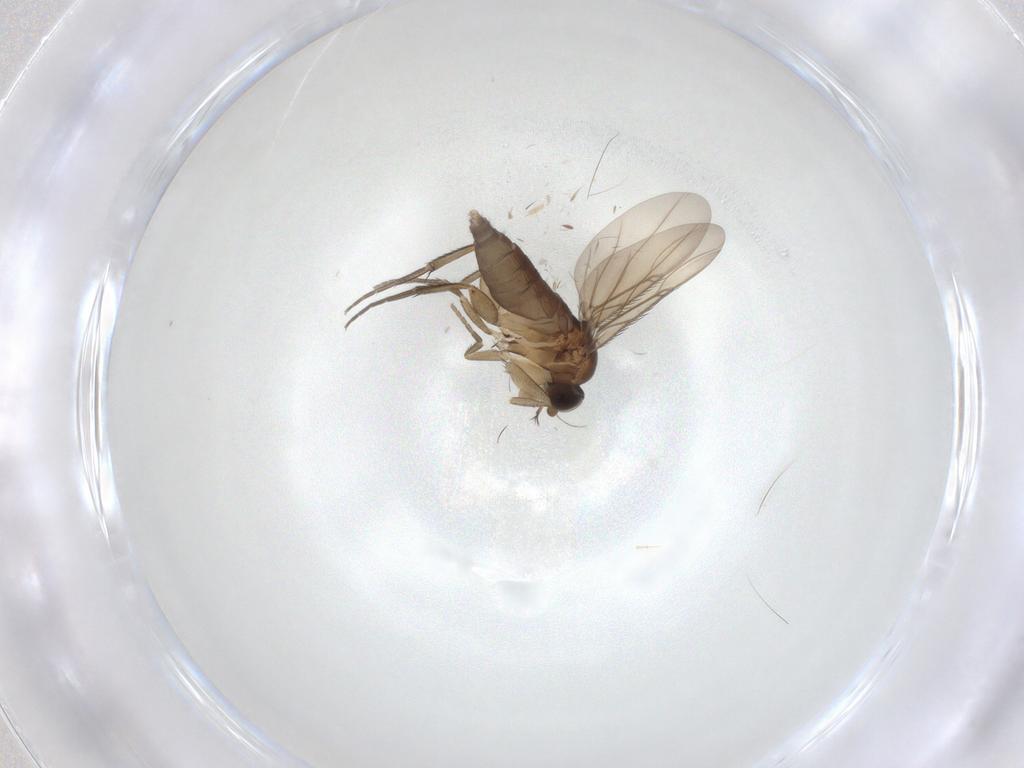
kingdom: Animalia
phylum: Arthropoda
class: Insecta
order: Diptera
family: Phoridae
